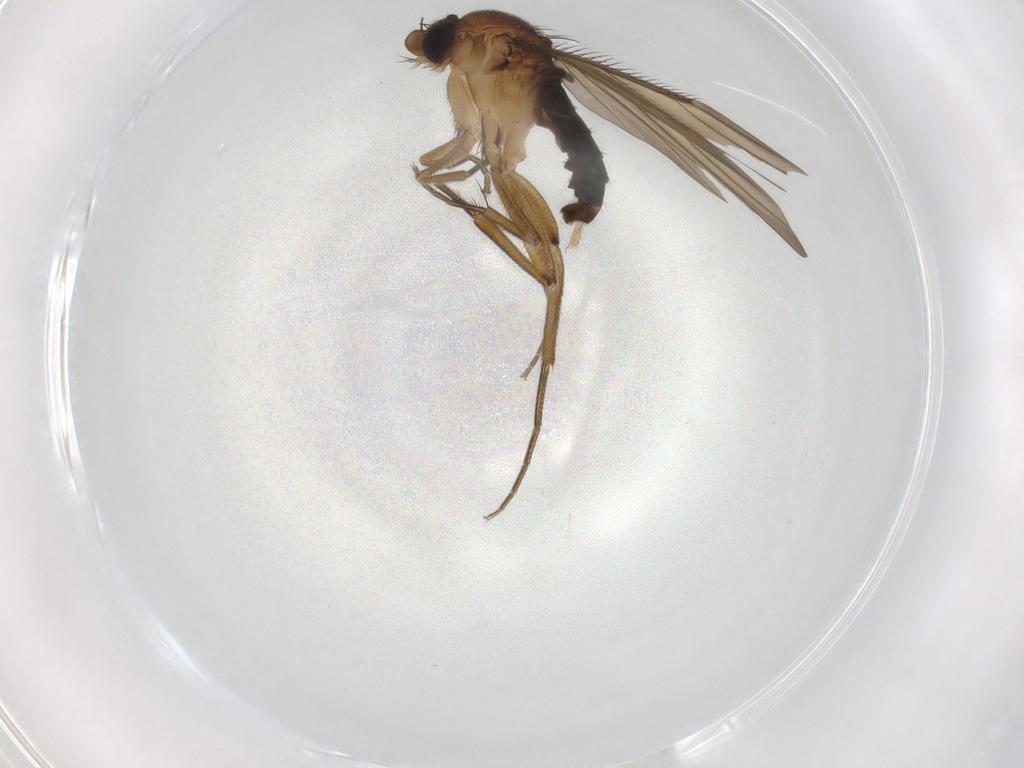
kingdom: Animalia
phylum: Arthropoda
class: Insecta
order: Diptera
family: Phoridae
